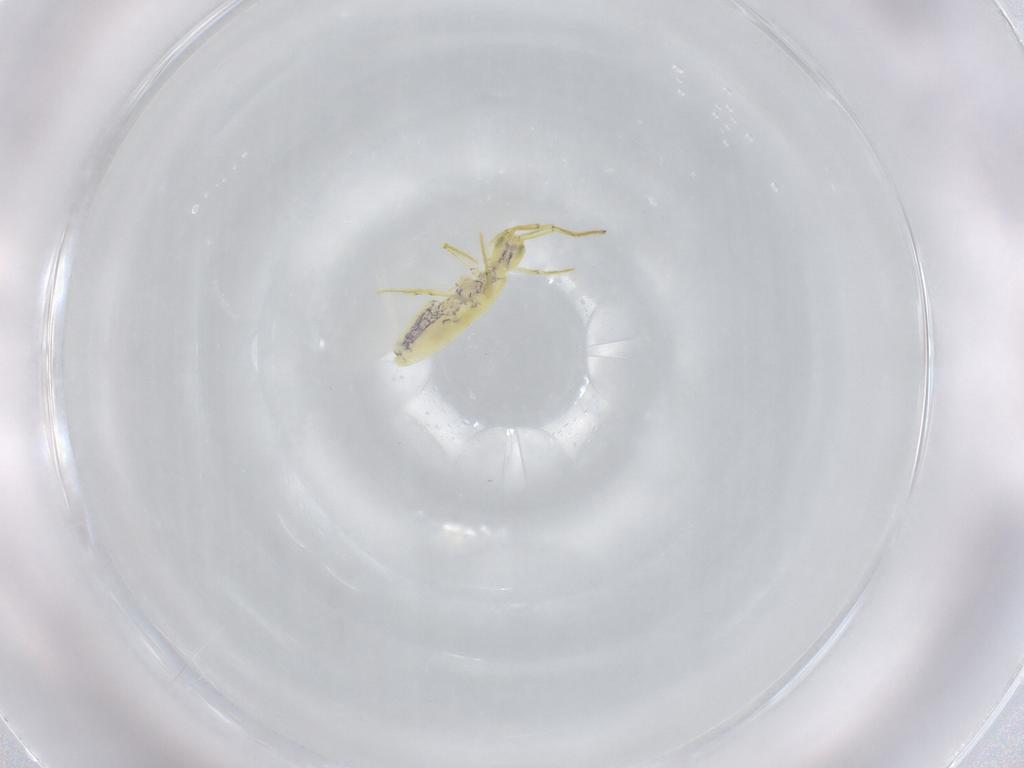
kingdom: Animalia
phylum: Arthropoda
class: Collembola
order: Entomobryomorpha
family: Entomobryidae
